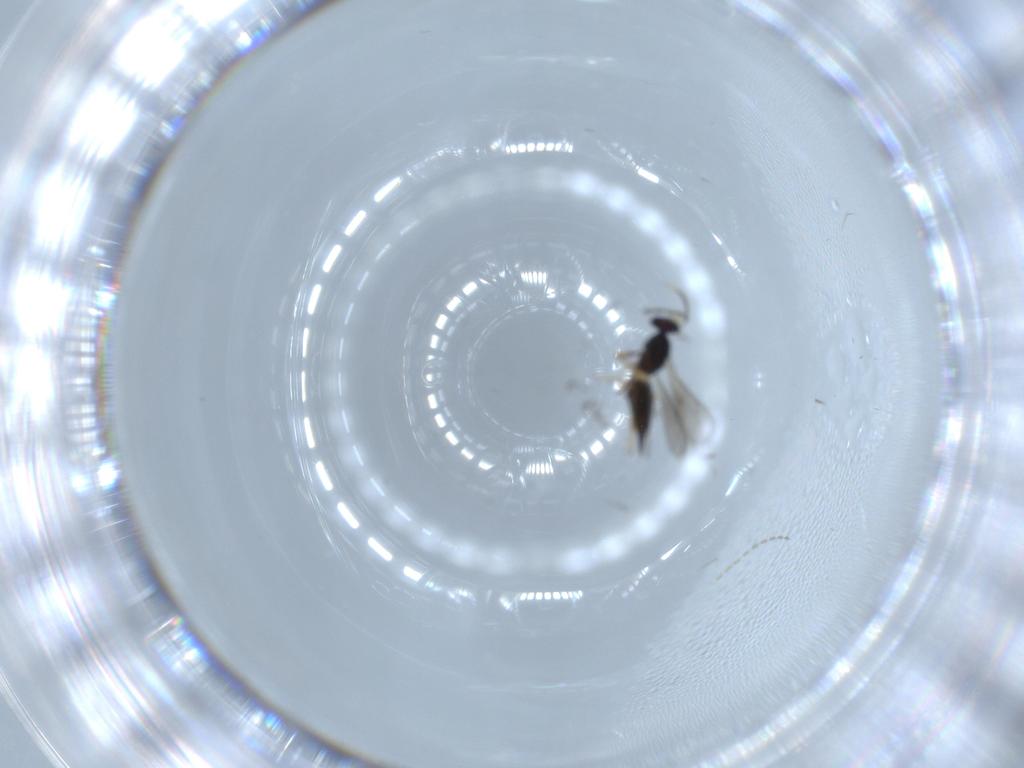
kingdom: Animalia
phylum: Arthropoda
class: Insecta
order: Hymenoptera
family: Eulophidae
